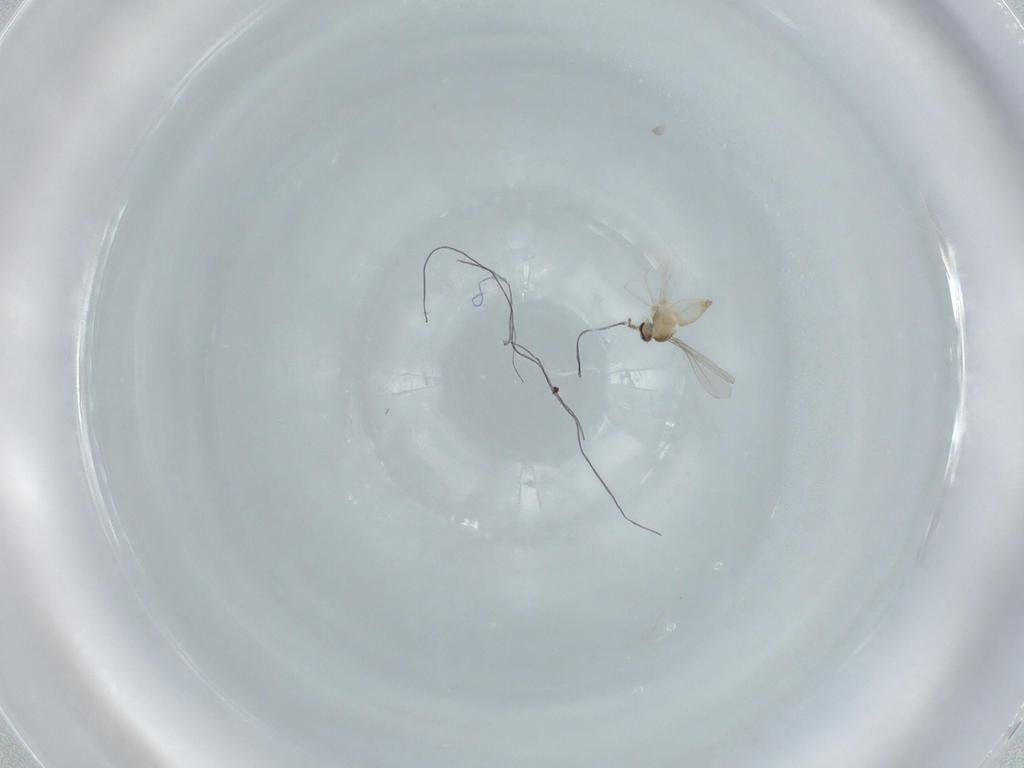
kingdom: Animalia
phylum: Arthropoda
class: Insecta
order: Diptera
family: Cecidomyiidae
